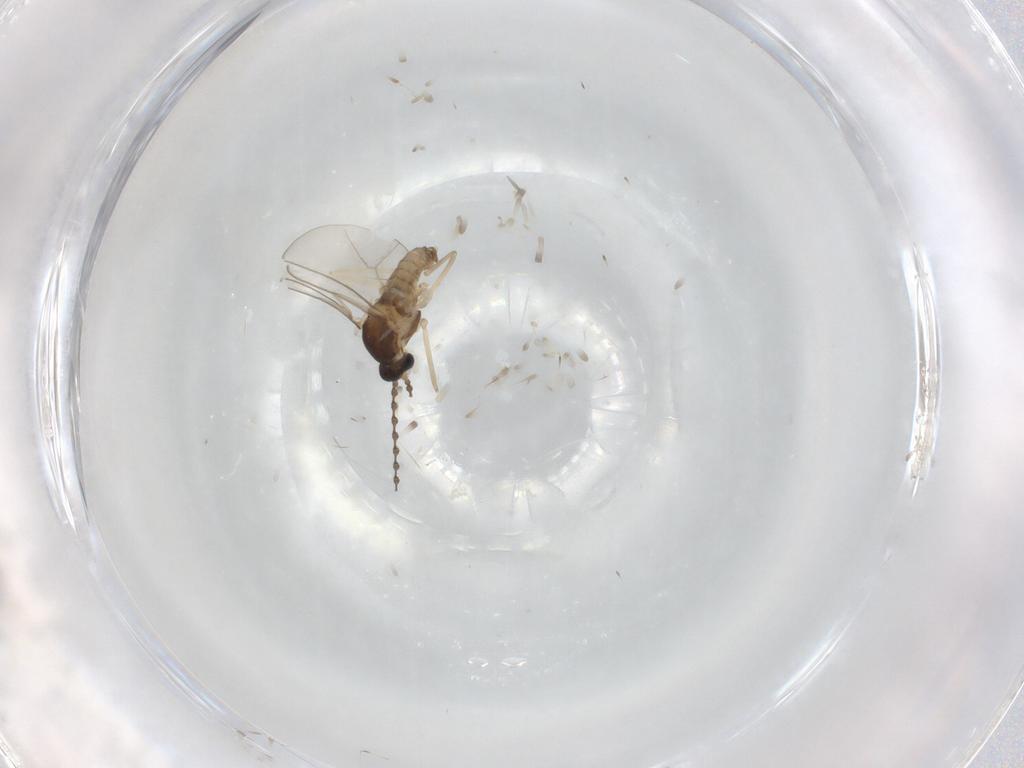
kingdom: Animalia
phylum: Arthropoda
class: Insecta
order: Diptera
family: Cecidomyiidae
